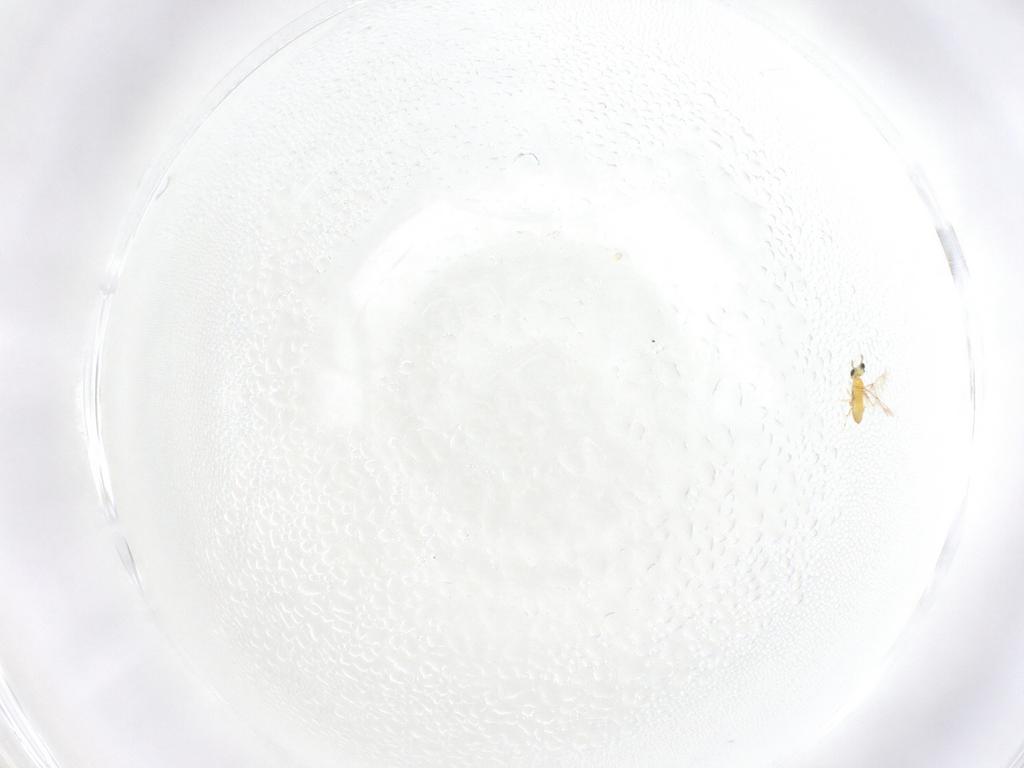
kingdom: Animalia
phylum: Arthropoda
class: Insecta
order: Hymenoptera
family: Trichogrammatidae
